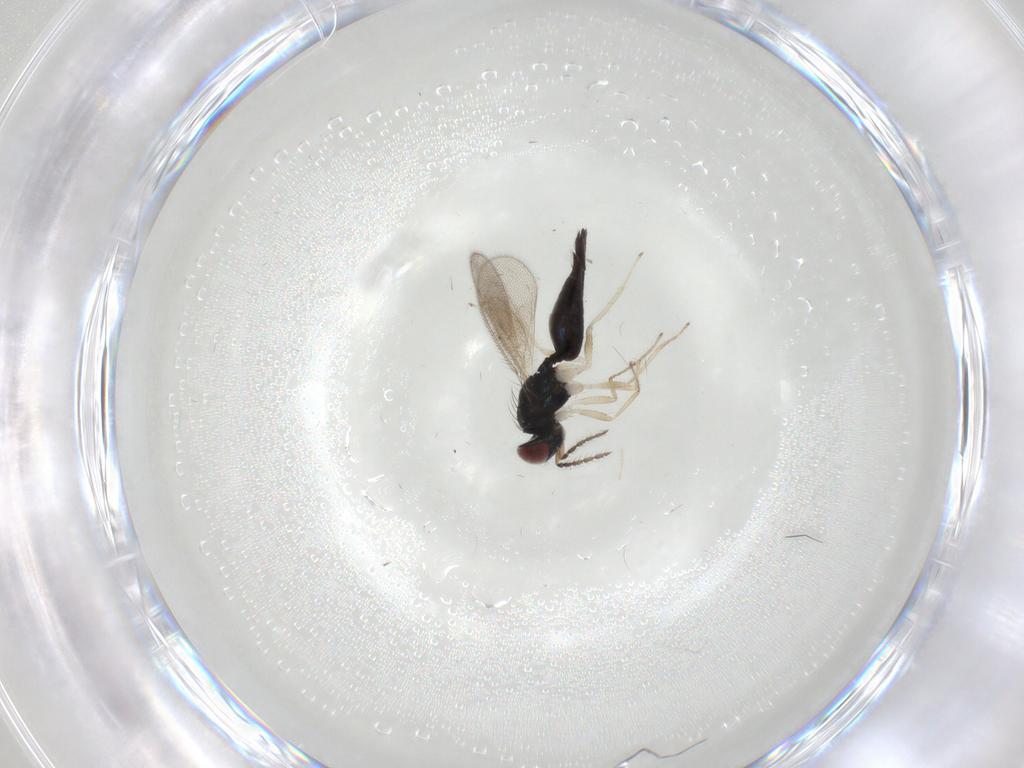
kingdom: Animalia
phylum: Arthropoda
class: Insecta
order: Hymenoptera
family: Eulophidae
